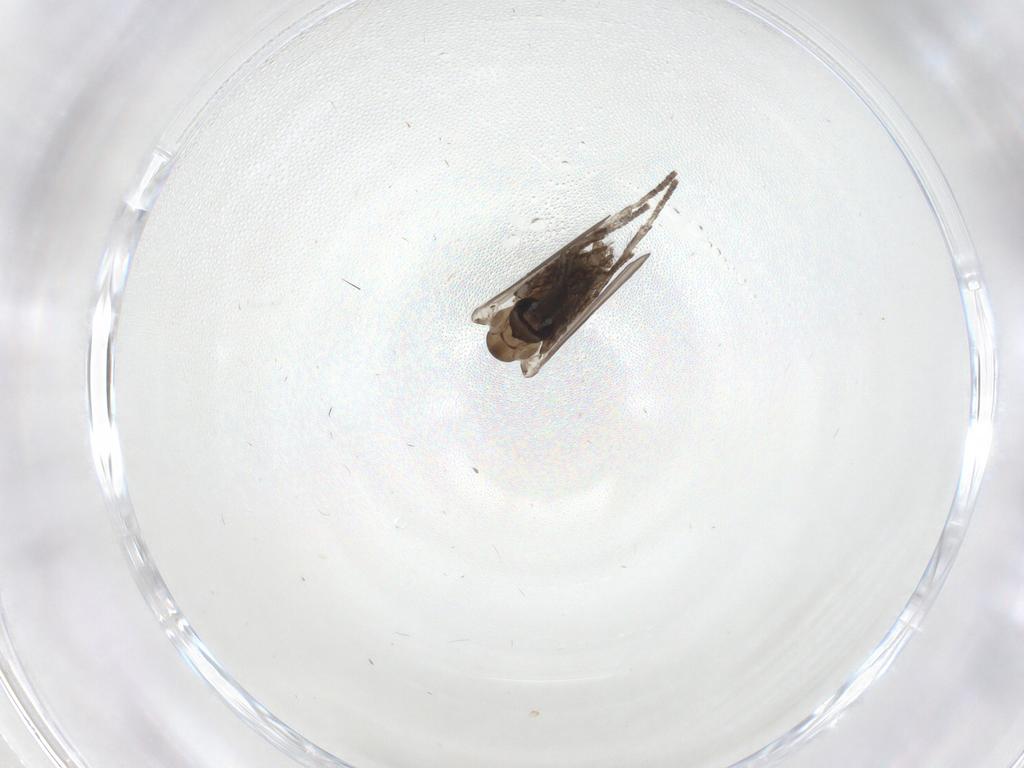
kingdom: Animalia
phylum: Arthropoda
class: Insecta
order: Diptera
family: Psychodidae
